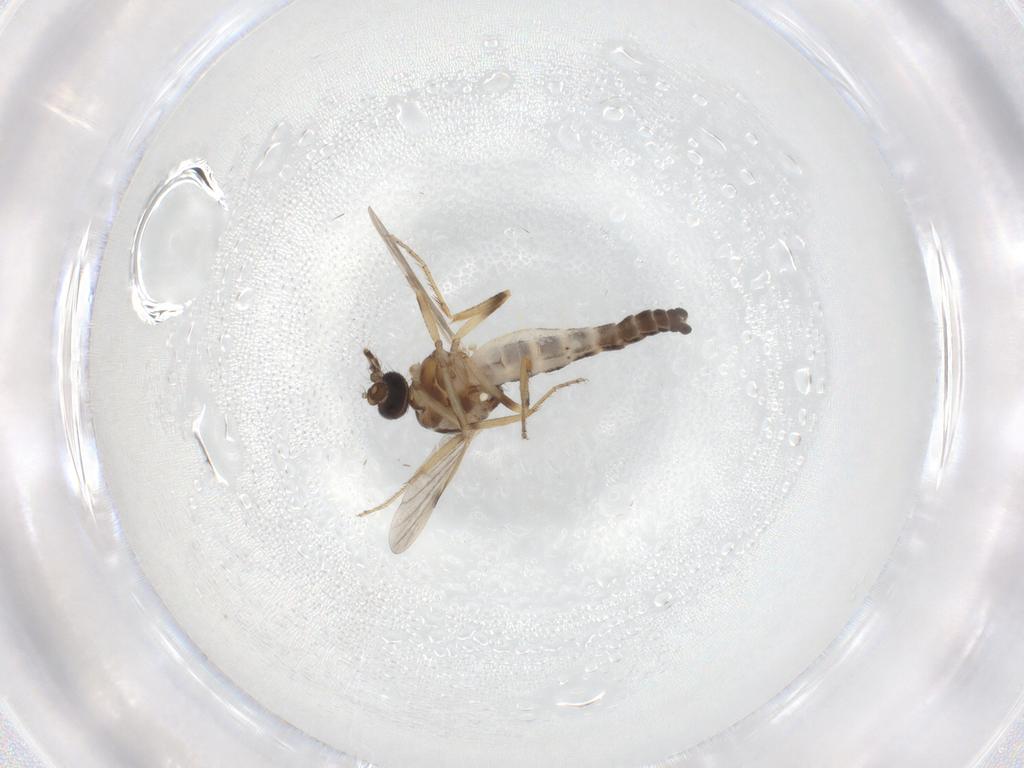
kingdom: Animalia
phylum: Arthropoda
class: Insecta
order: Diptera
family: Ceratopogonidae
